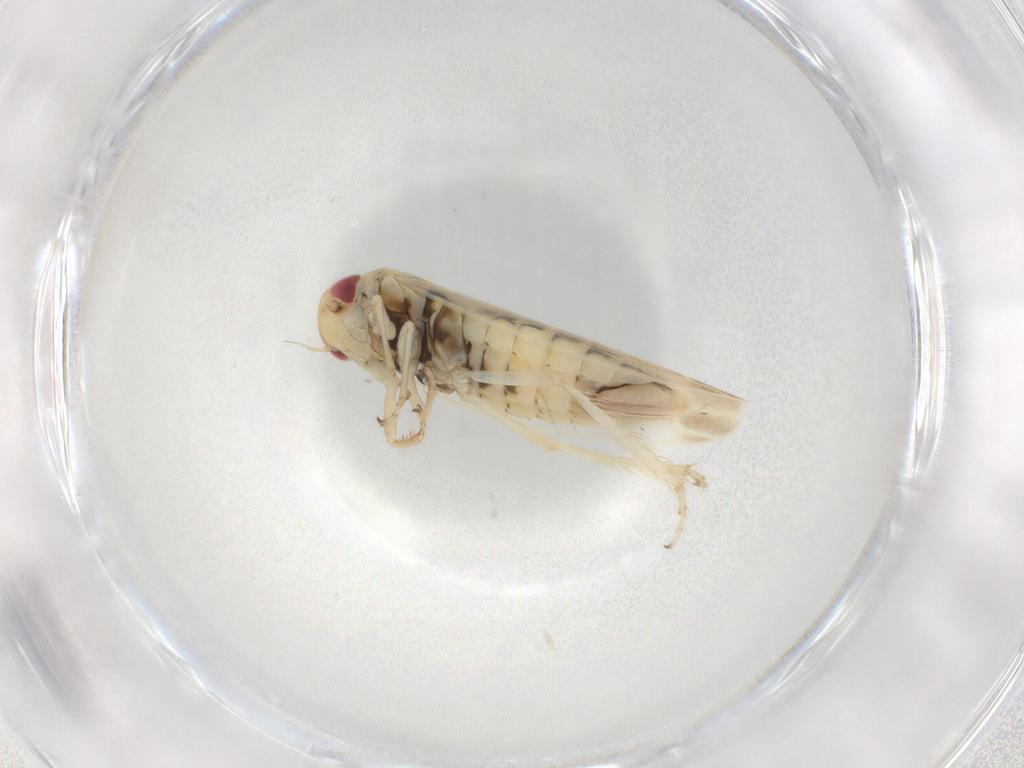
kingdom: Animalia
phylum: Arthropoda
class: Insecta
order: Hemiptera
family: Cicadellidae
